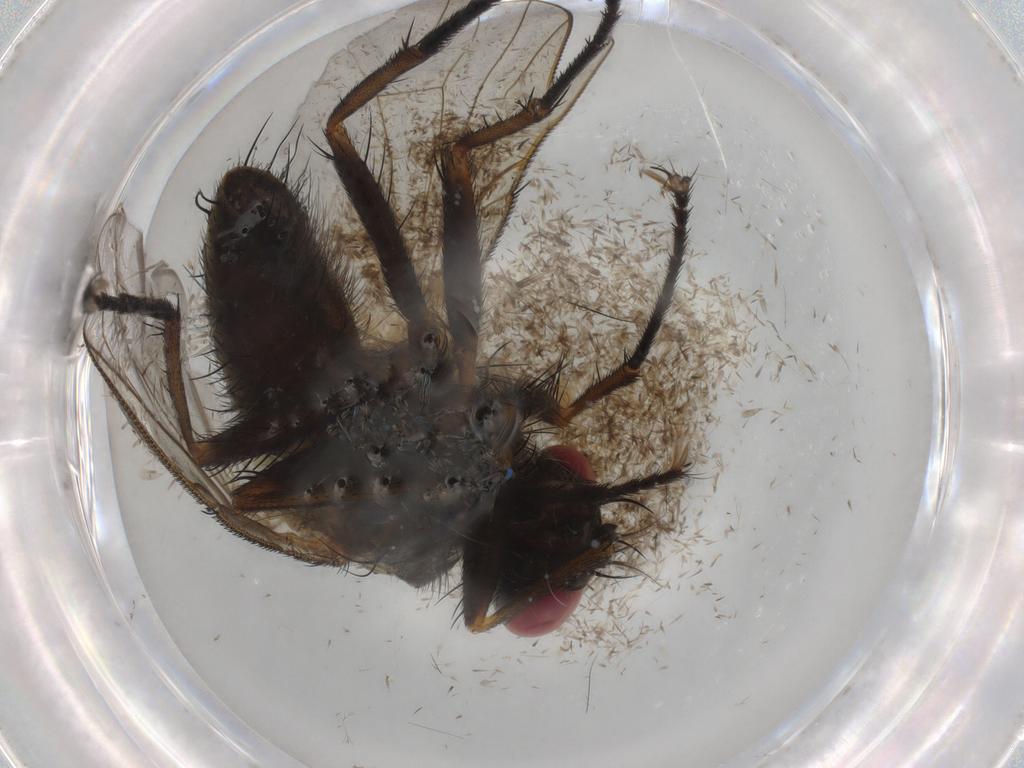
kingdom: Animalia
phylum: Arthropoda
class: Insecta
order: Diptera
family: Muscidae
